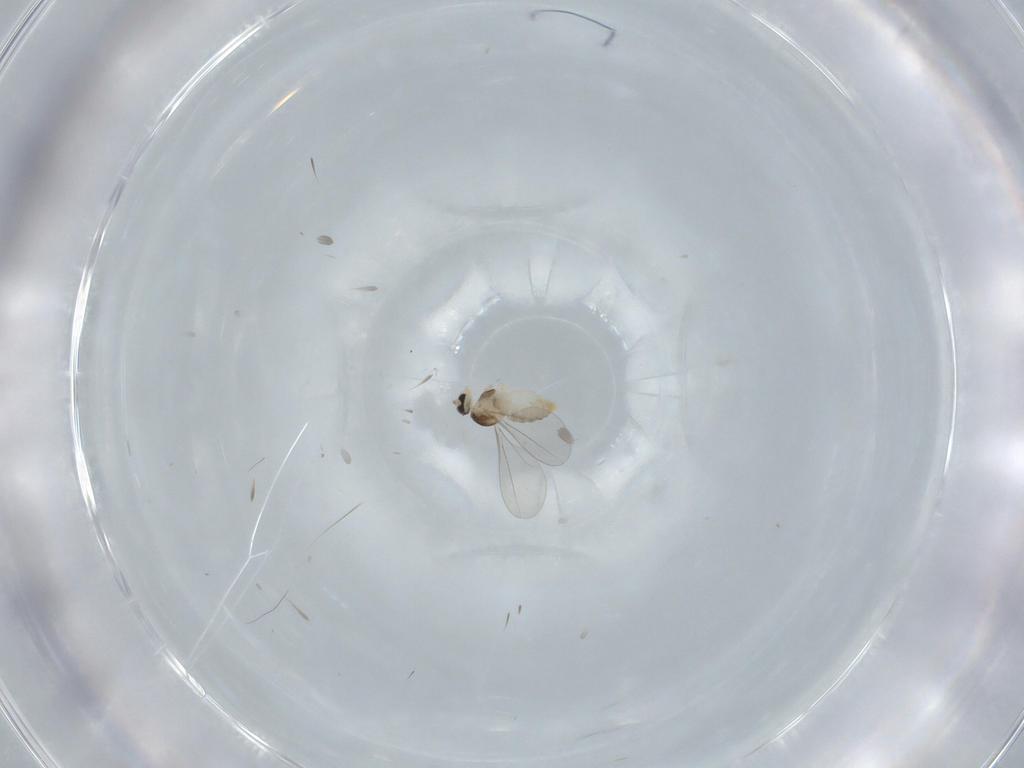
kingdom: Animalia
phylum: Arthropoda
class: Insecta
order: Diptera
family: Cecidomyiidae
